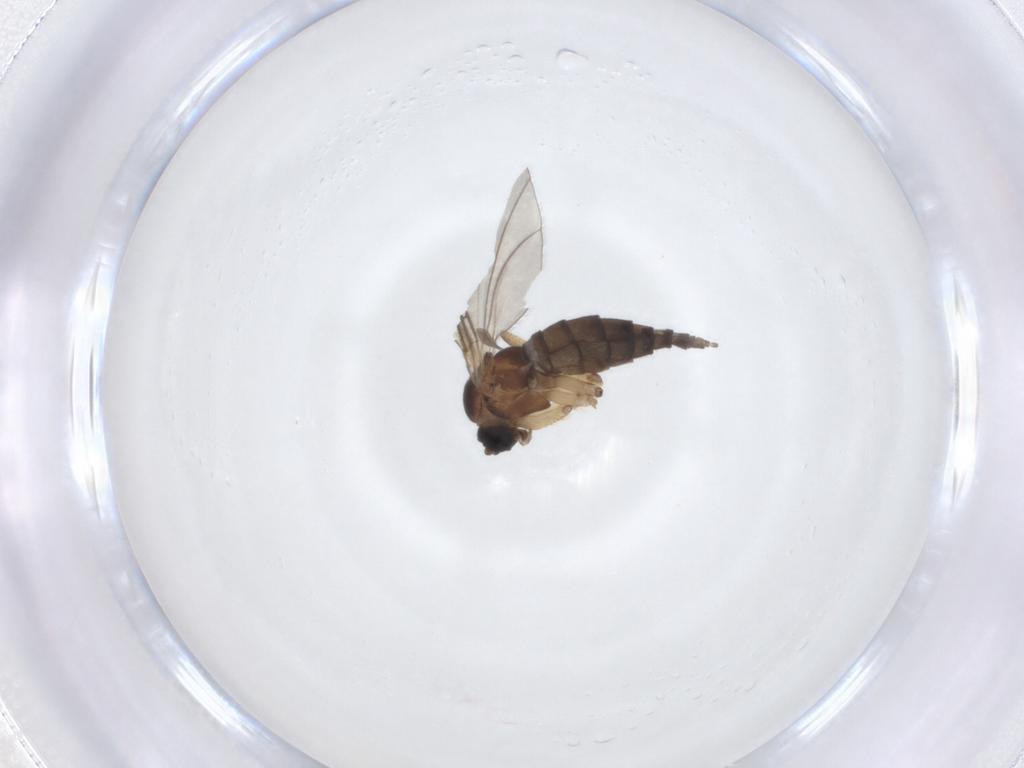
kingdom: Animalia
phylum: Arthropoda
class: Insecta
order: Diptera
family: Sciaridae
